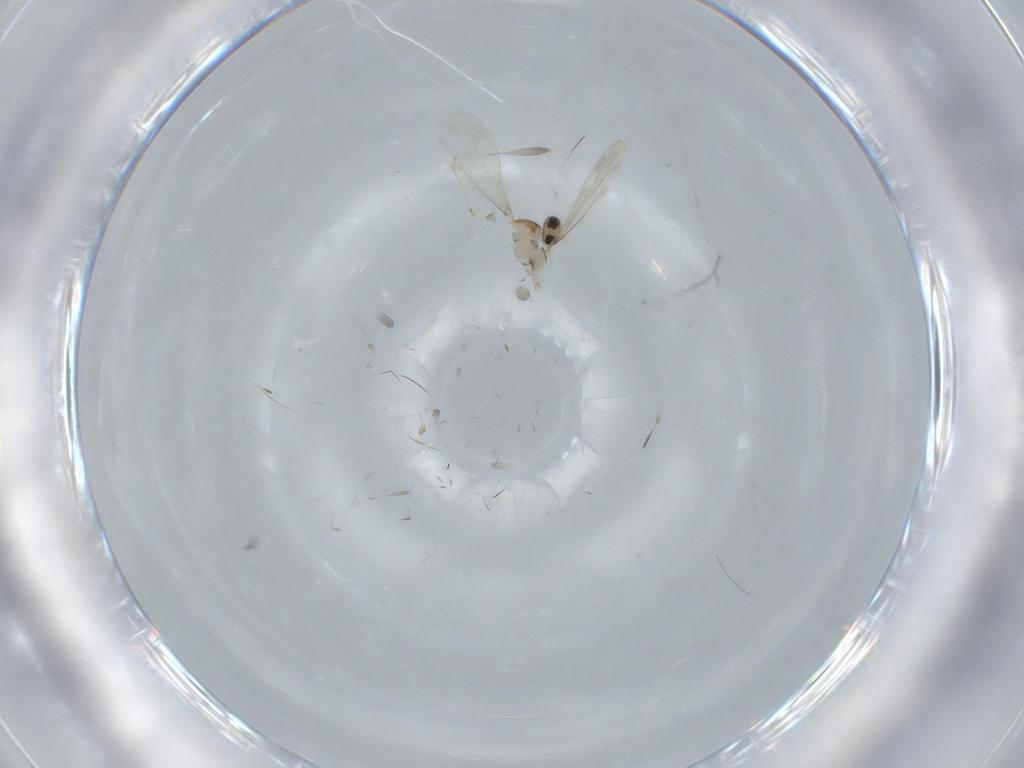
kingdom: Animalia
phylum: Arthropoda
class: Insecta
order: Diptera
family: Muscidae
